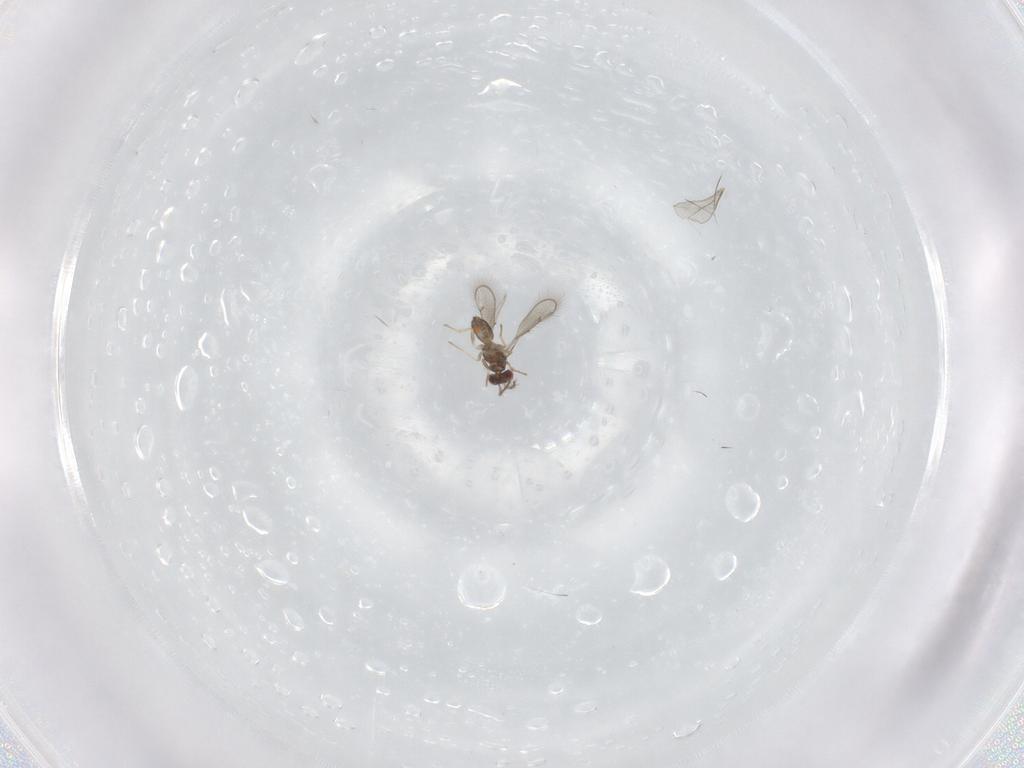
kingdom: Animalia
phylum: Arthropoda
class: Insecta
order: Hymenoptera
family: Eulophidae
